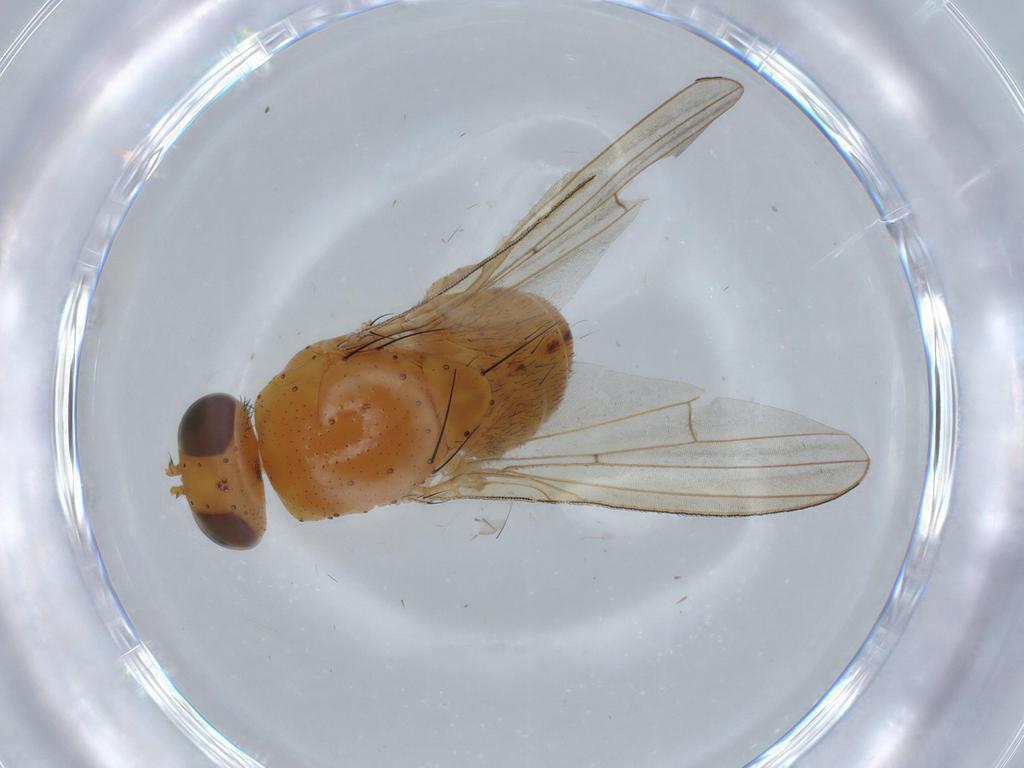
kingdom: Animalia
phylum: Arthropoda
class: Insecta
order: Diptera
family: Lauxaniidae
